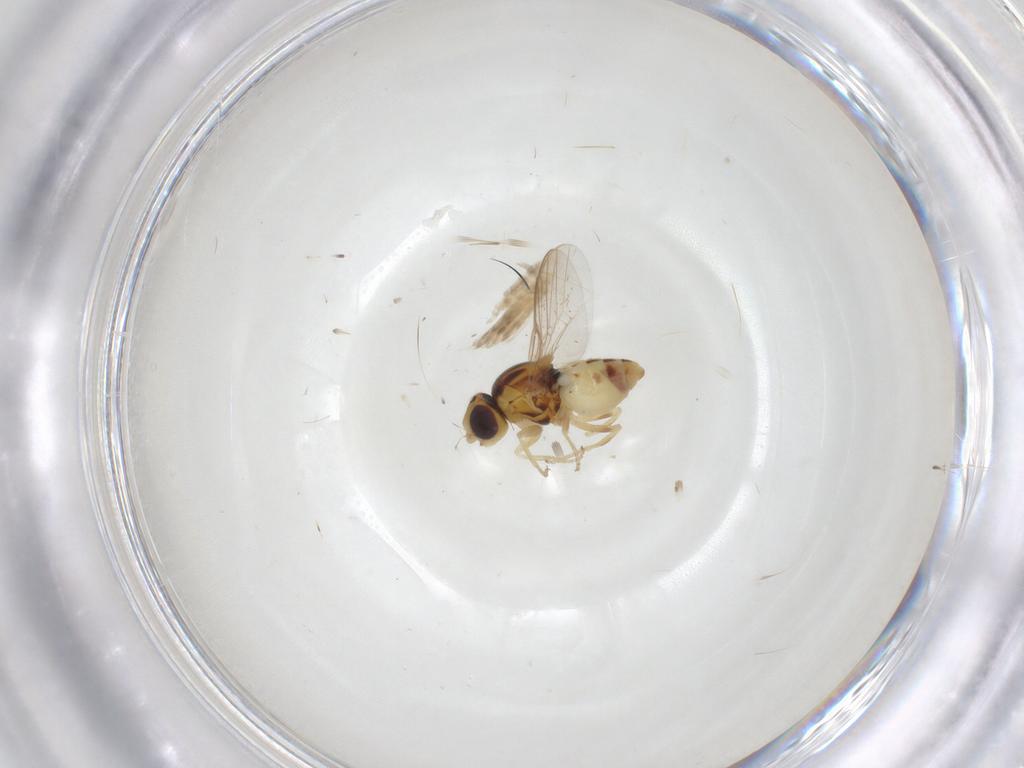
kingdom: Animalia
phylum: Arthropoda
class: Insecta
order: Diptera
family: Chloropidae
